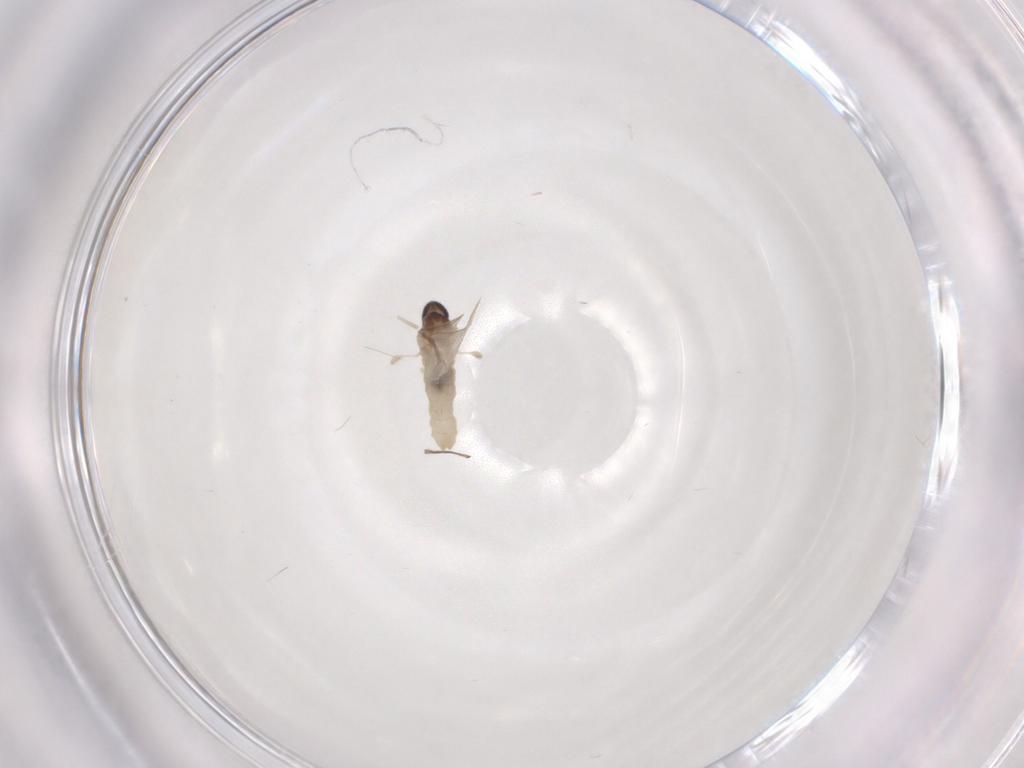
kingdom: Animalia
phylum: Arthropoda
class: Insecta
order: Diptera
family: Cecidomyiidae
